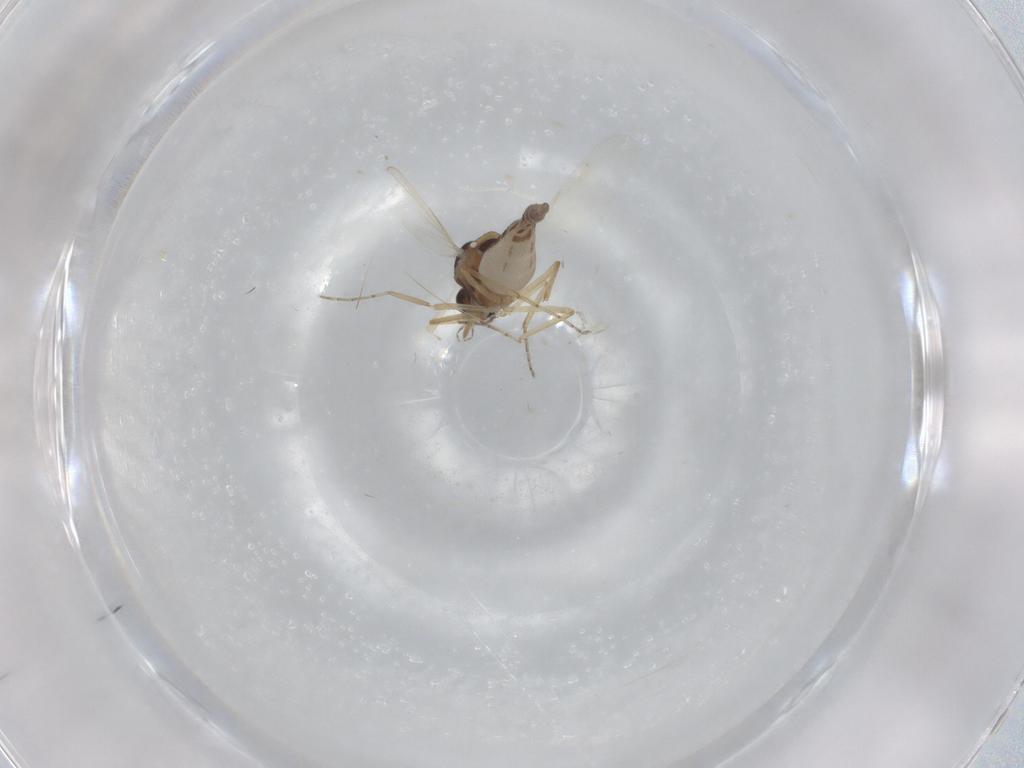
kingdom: Animalia
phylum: Arthropoda
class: Insecta
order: Diptera
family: Ceratopogonidae
